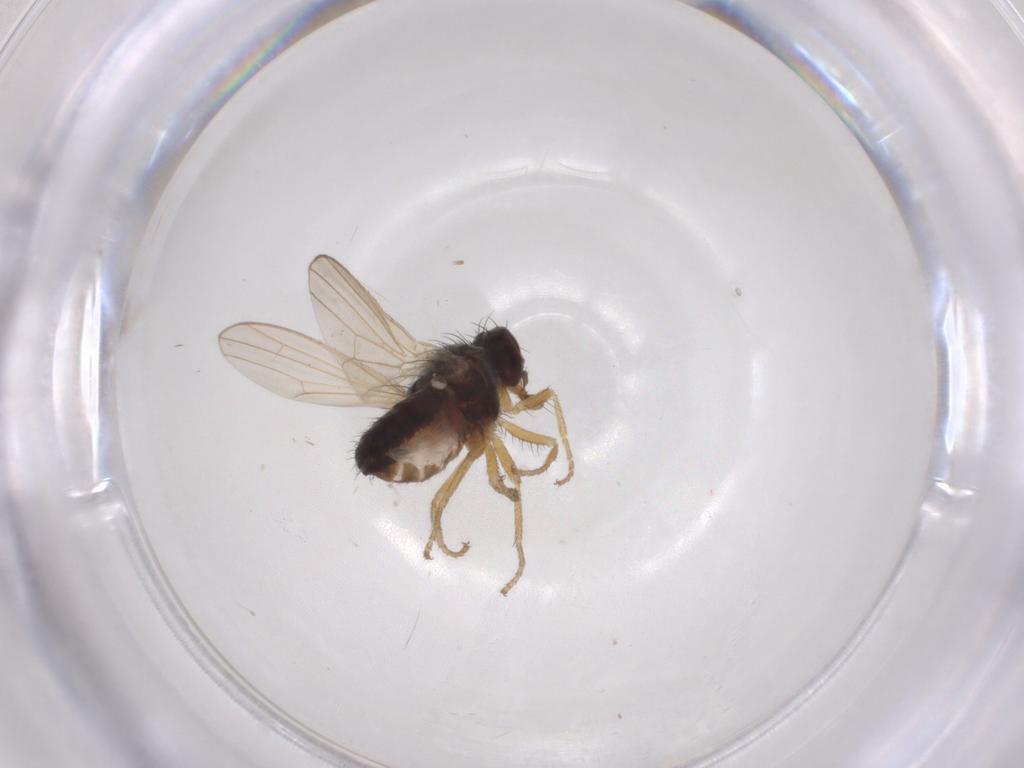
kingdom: Animalia
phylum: Arthropoda
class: Insecta
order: Diptera
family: Heleomyzidae
